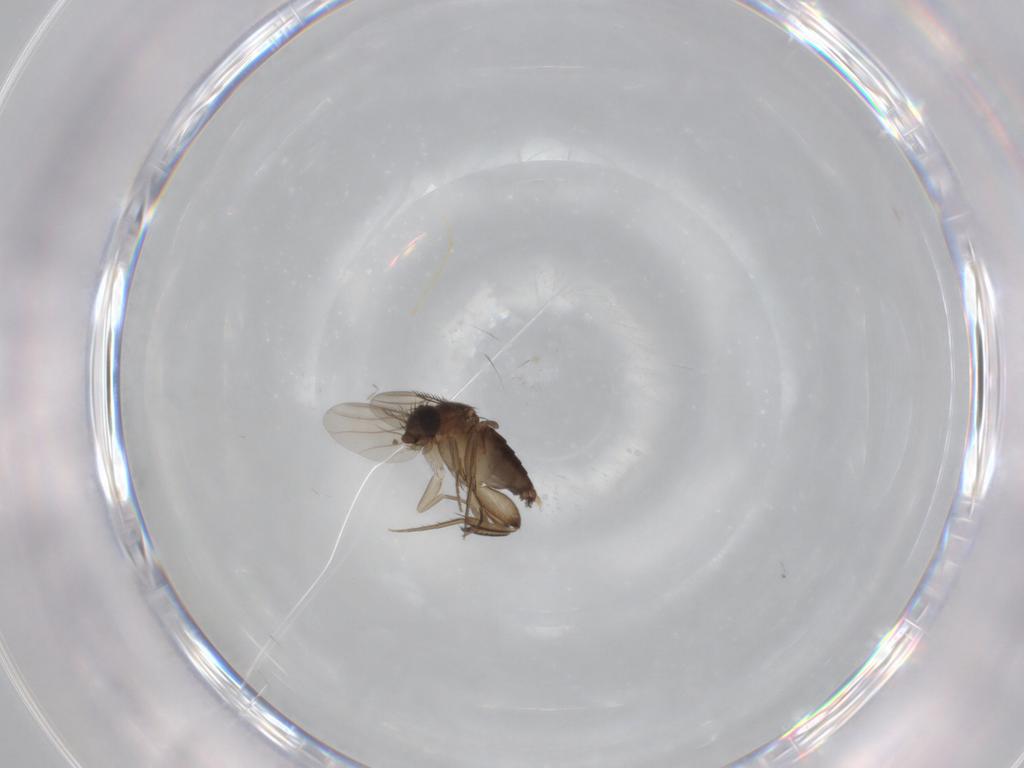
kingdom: Animalia
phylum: Arthropoda
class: Insecta
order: Diptera
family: Phoridae
